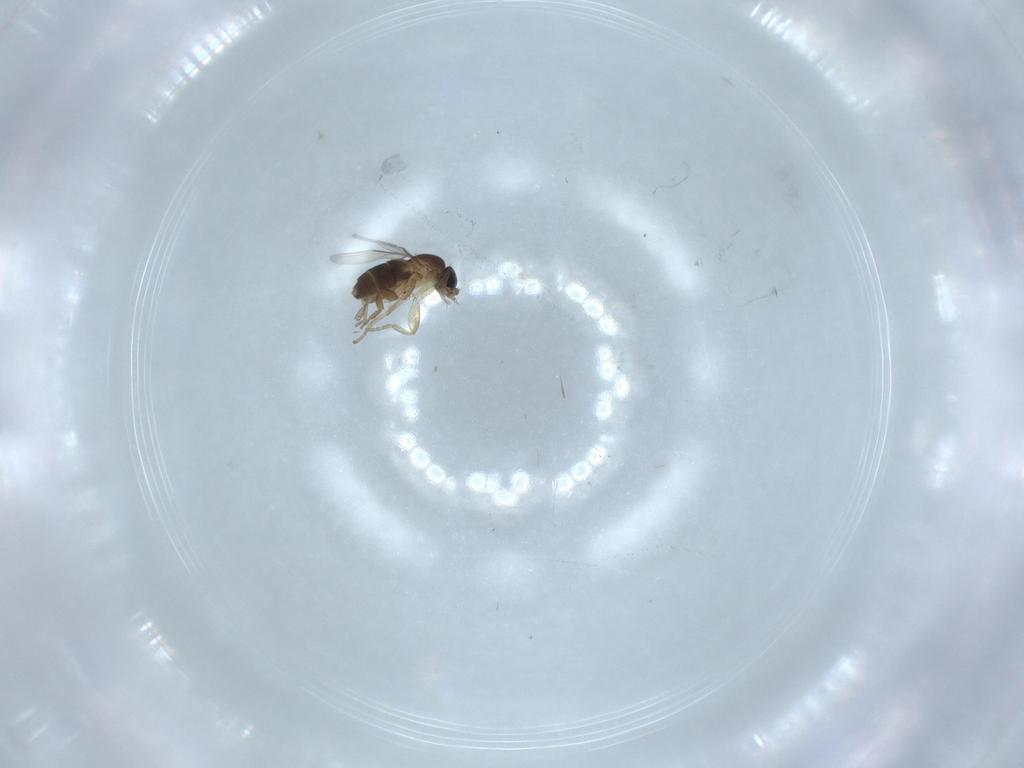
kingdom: Animalia
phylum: Arthropoda
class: Insecta
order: Diptera
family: Phoridae
